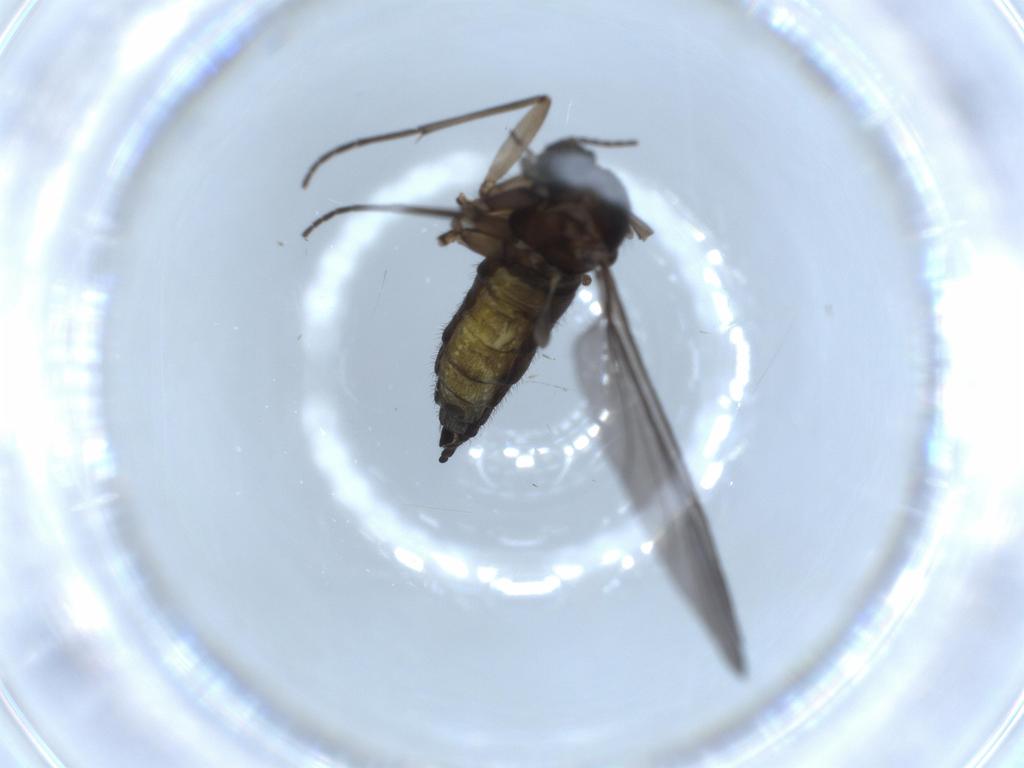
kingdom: Animalia
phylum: Arthropoda
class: Insecta
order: Diptera
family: Sciaridae
